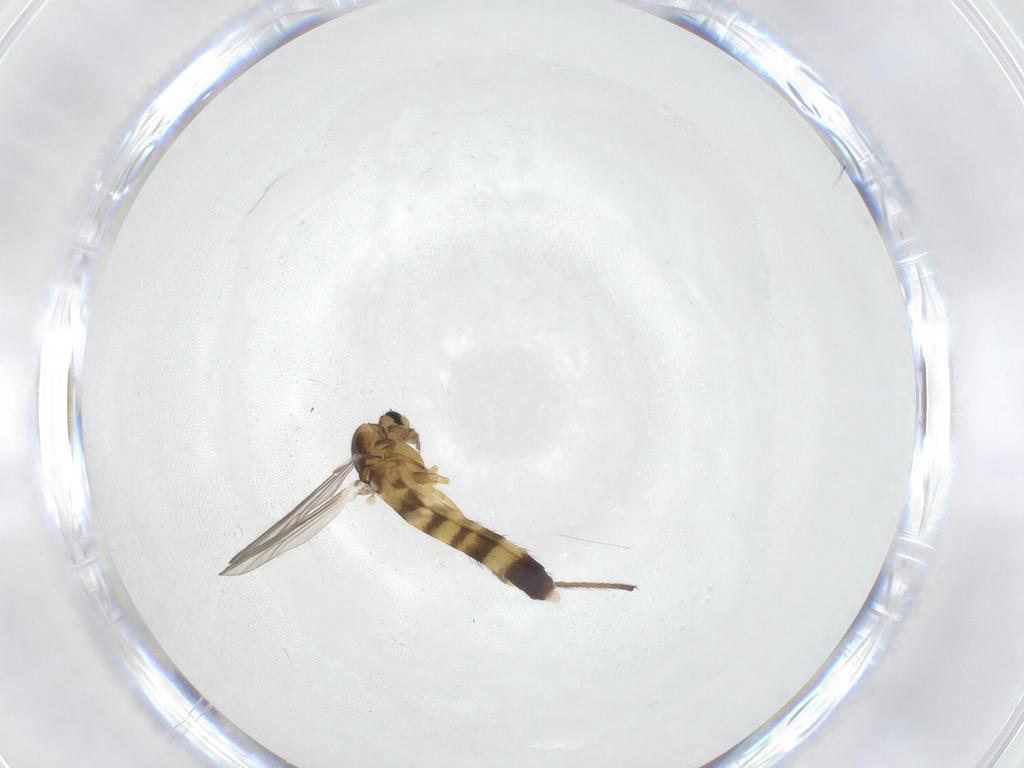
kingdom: Animalia
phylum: Arthropoda
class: Insecta
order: Diptera
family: Chironomidae
